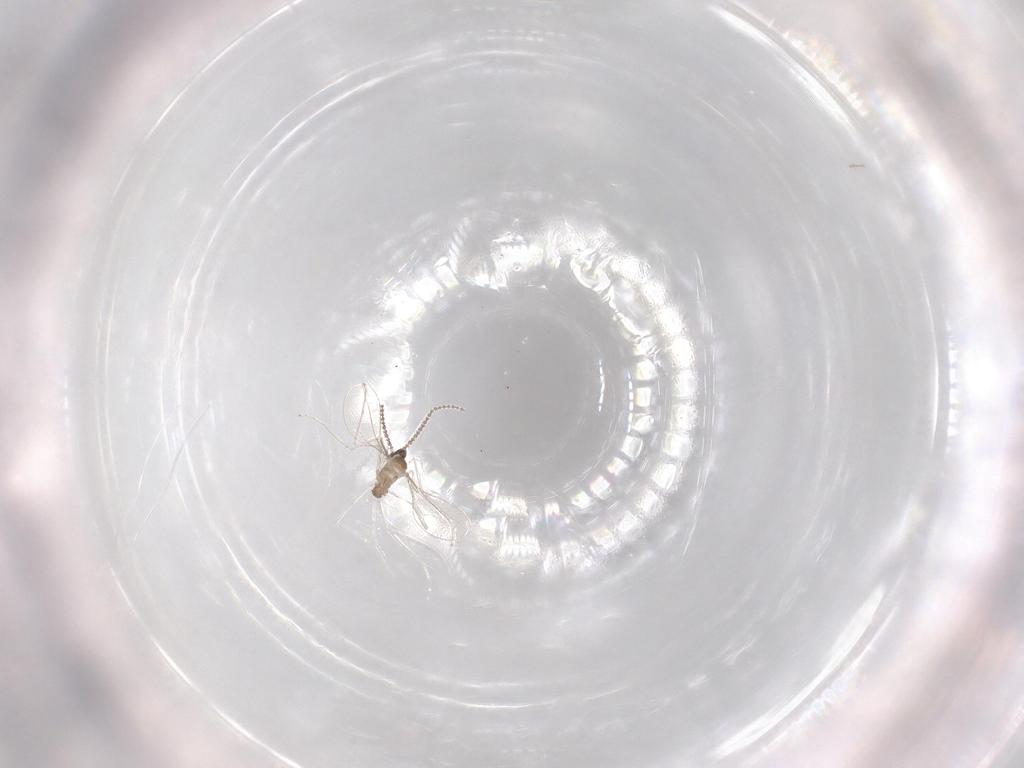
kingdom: Animalia
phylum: Arthropoda
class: Insecta
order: Diptera
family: Cecidomyiidae
